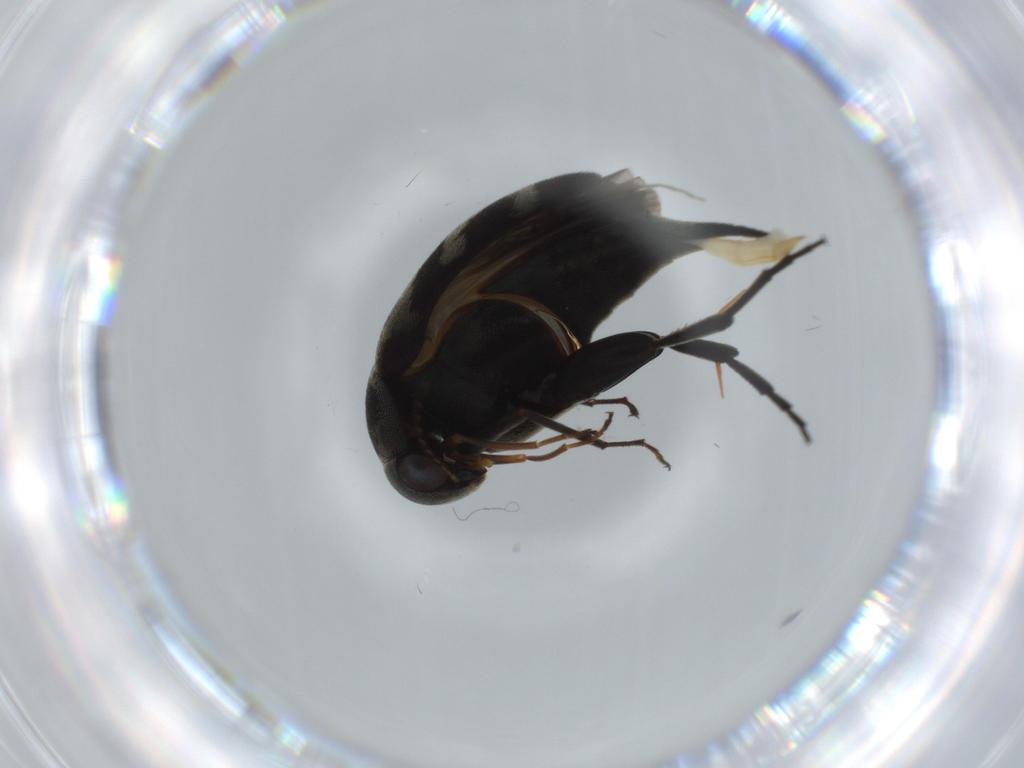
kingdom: Animalia
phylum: Arthropoda
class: Insecta
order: Coleoptera
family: Mordellidae
